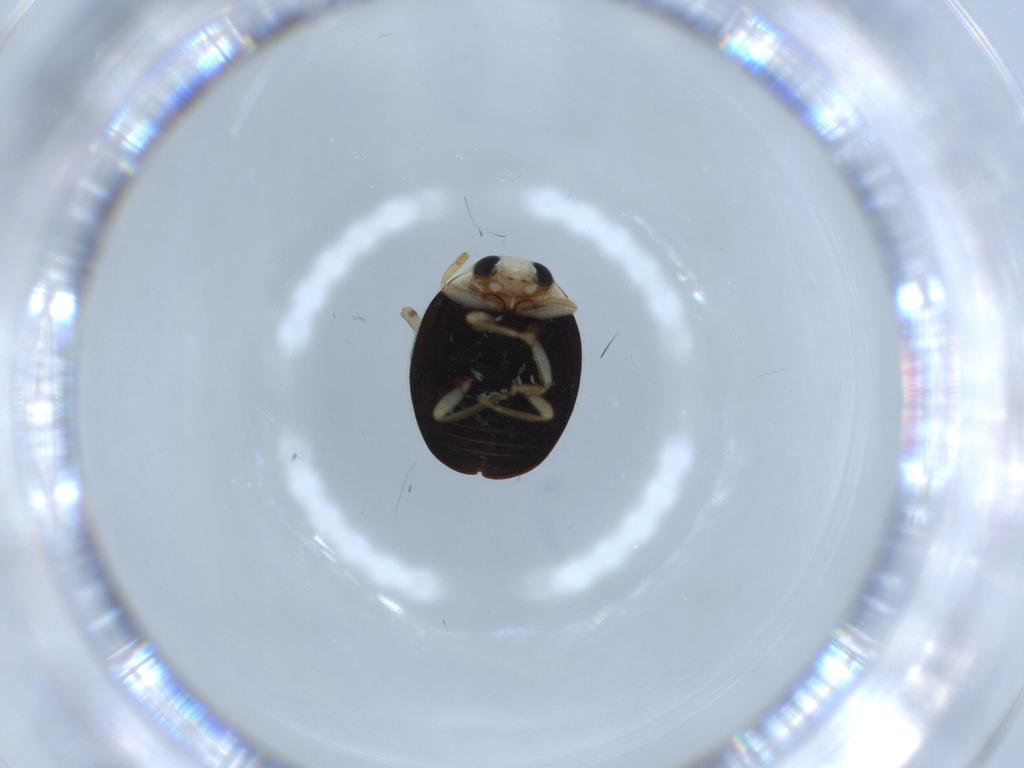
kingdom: Animalia
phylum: Arthropoda
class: Insecta
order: Coleoptera
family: Coccinellidae
